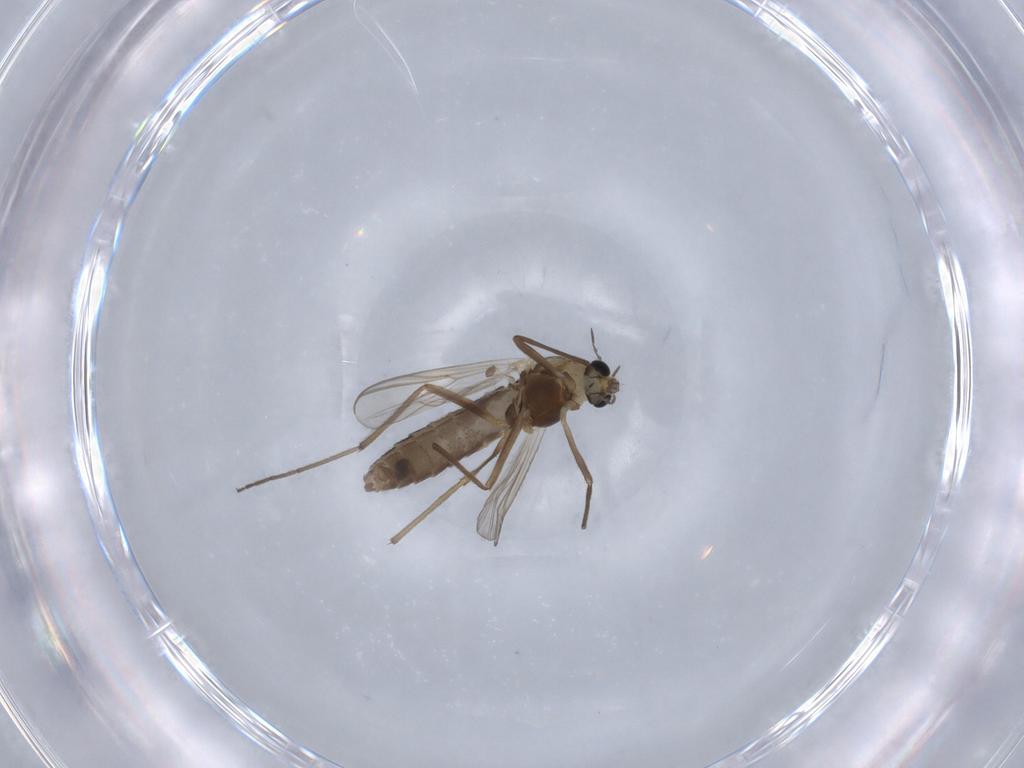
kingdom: Animalia
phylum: Arthropoda
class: Insecta
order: Diptera
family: Chironomidae
